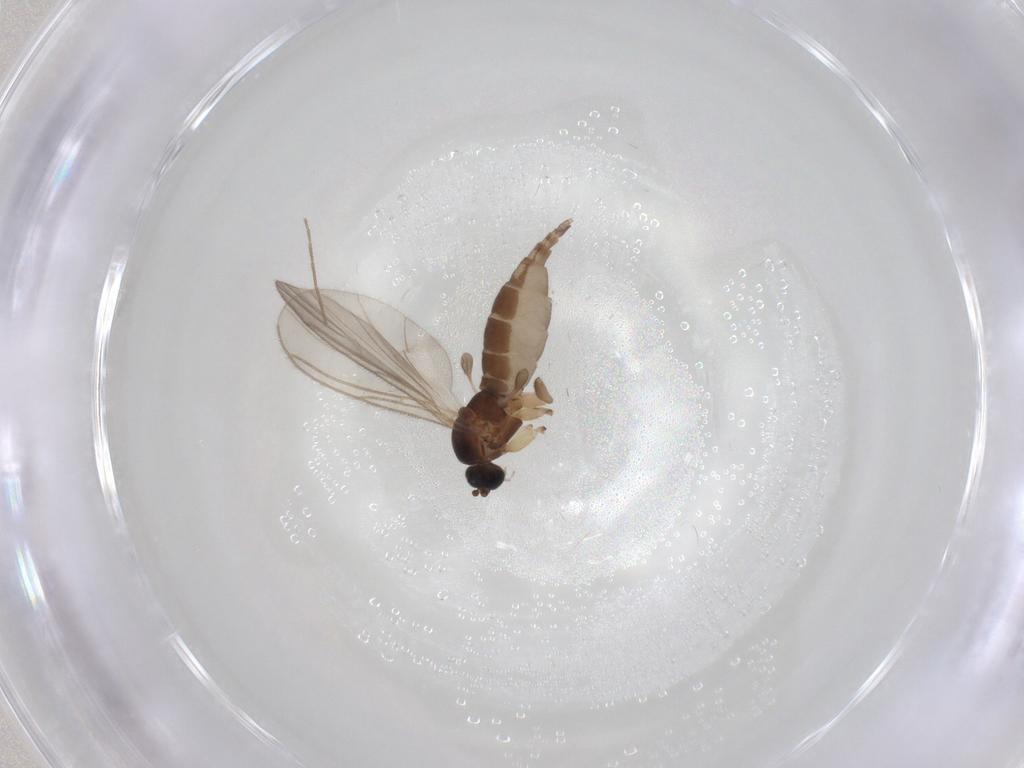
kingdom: Animalia
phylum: Arthropoda
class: Insecta
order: Diptera
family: Sciaridae
